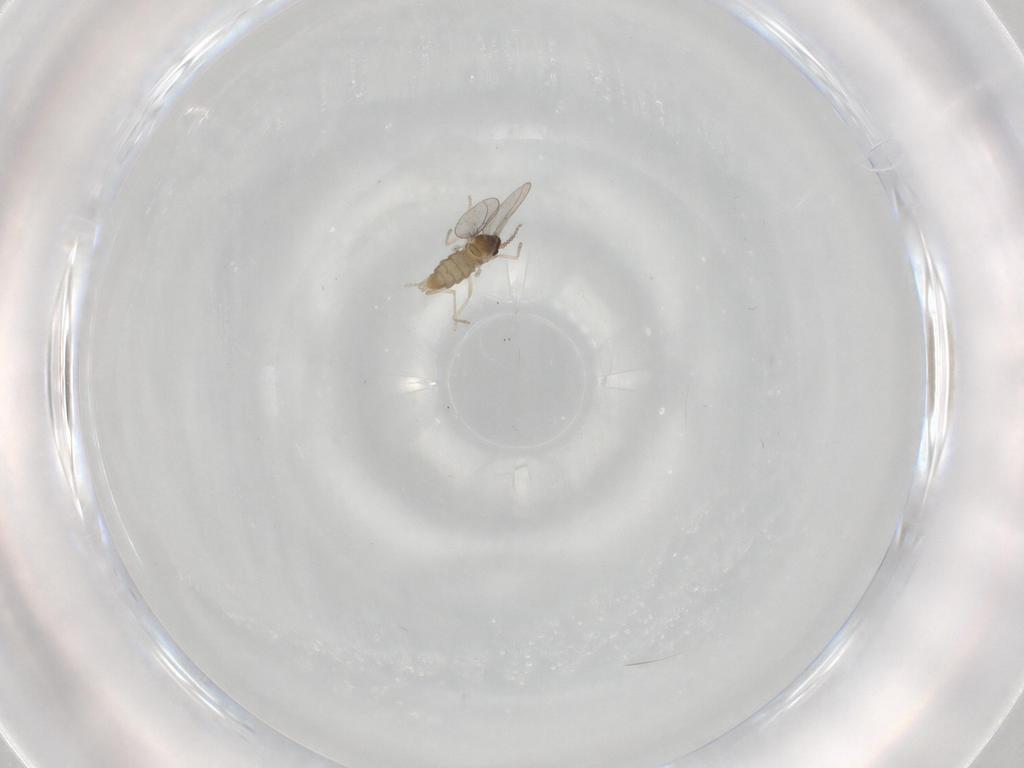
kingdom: Animalia
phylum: Arthropoda
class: Insecta
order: Diptera
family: Cecidomyiidae
